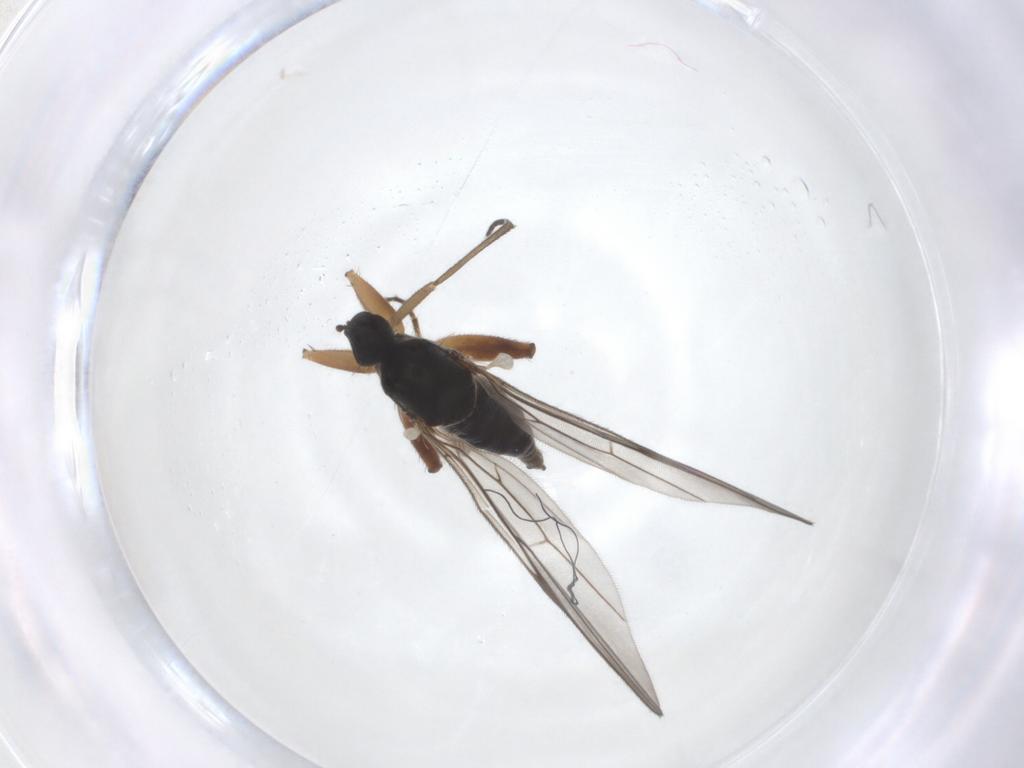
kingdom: Animalia
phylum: Arthropoda
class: Insecta
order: Diptera
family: Hybotidae
